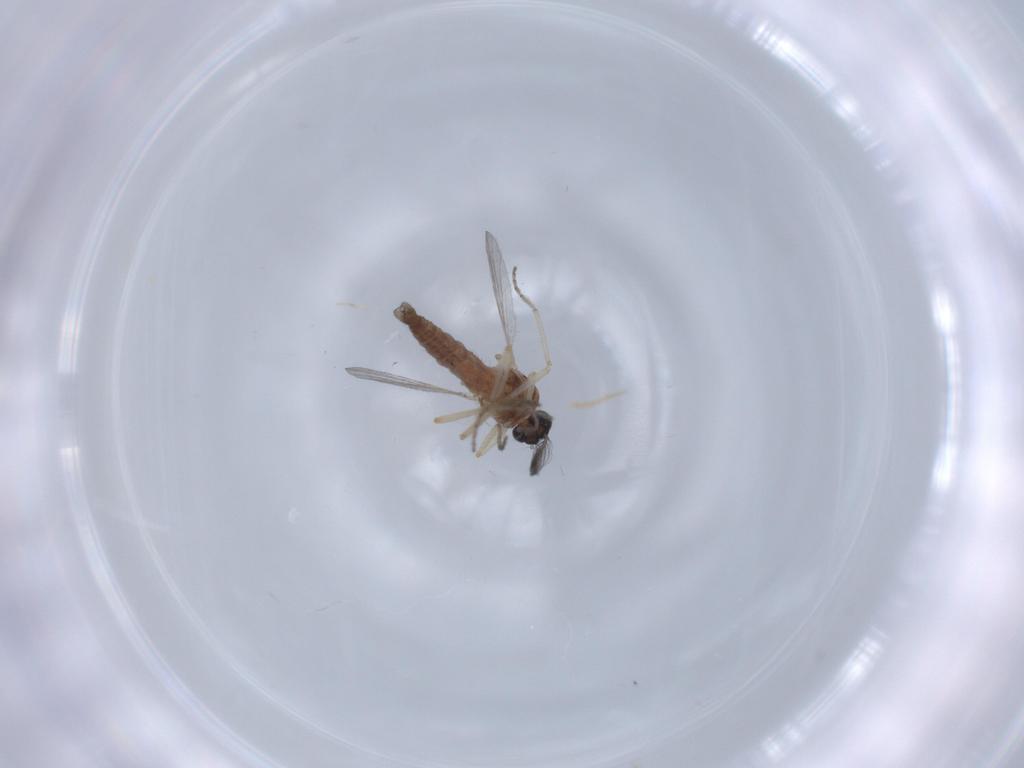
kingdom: Animalia
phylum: Arthropoda
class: Insecta
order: Diptera
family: Ceratopogonidae
